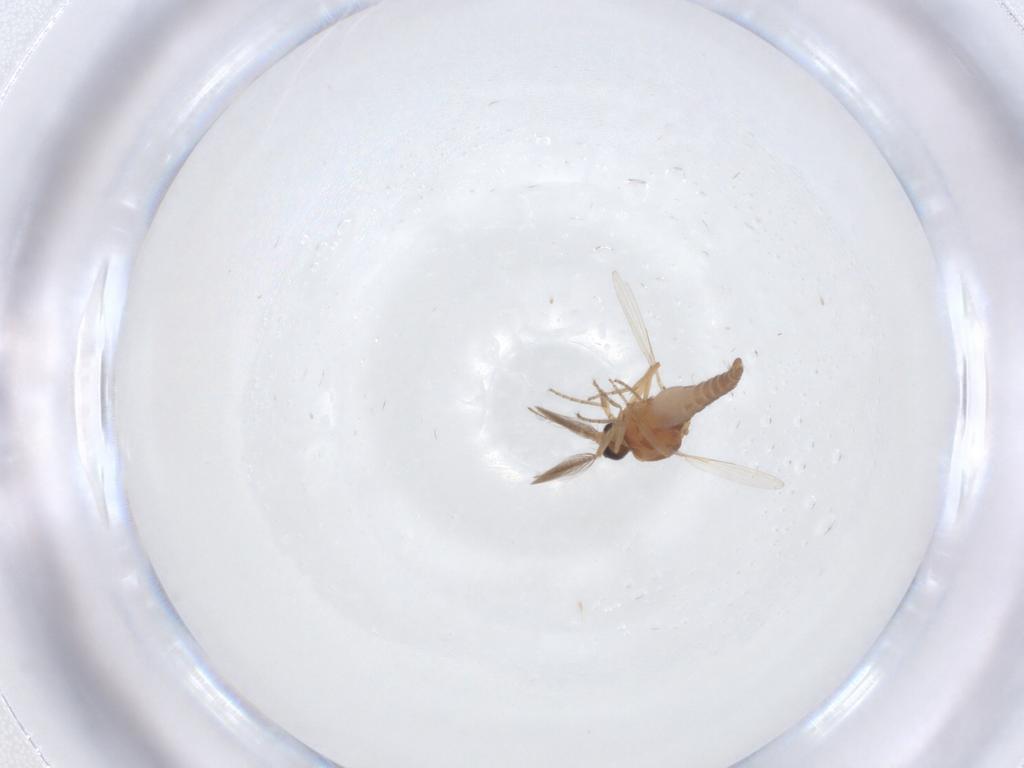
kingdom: Animalia
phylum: Arthropoda
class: Insecta
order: Diptera
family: Ceratopogonidae
